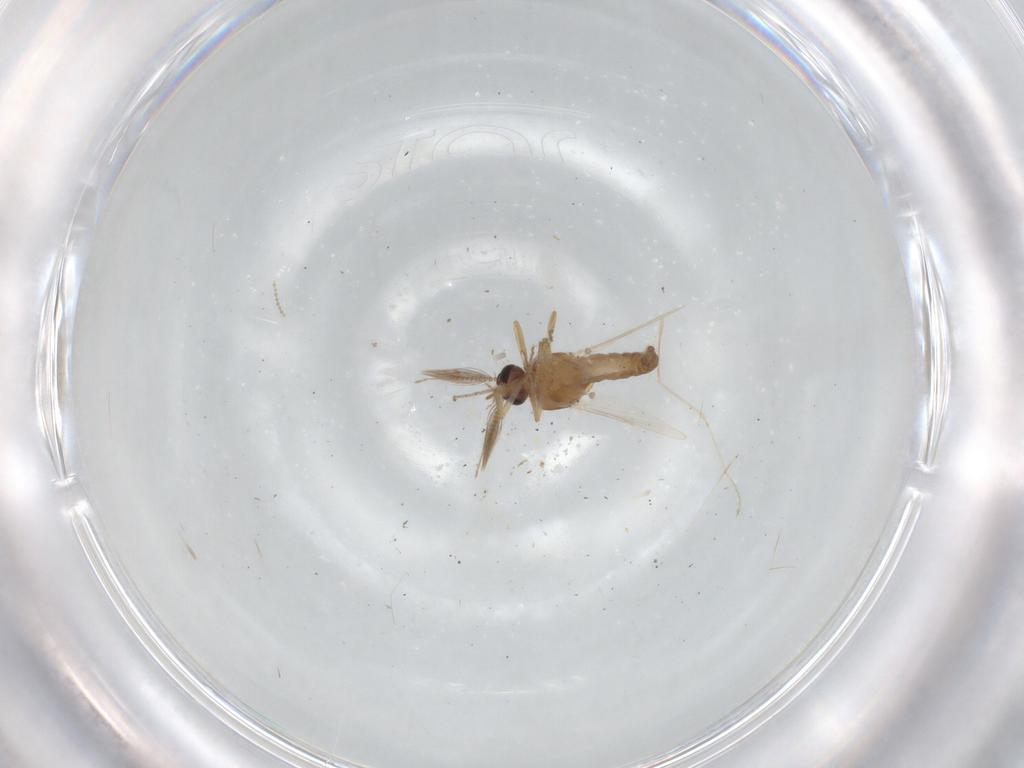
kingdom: Animalia
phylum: Arthropoda
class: Insecta
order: Diptera
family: Ceratopogonidae
